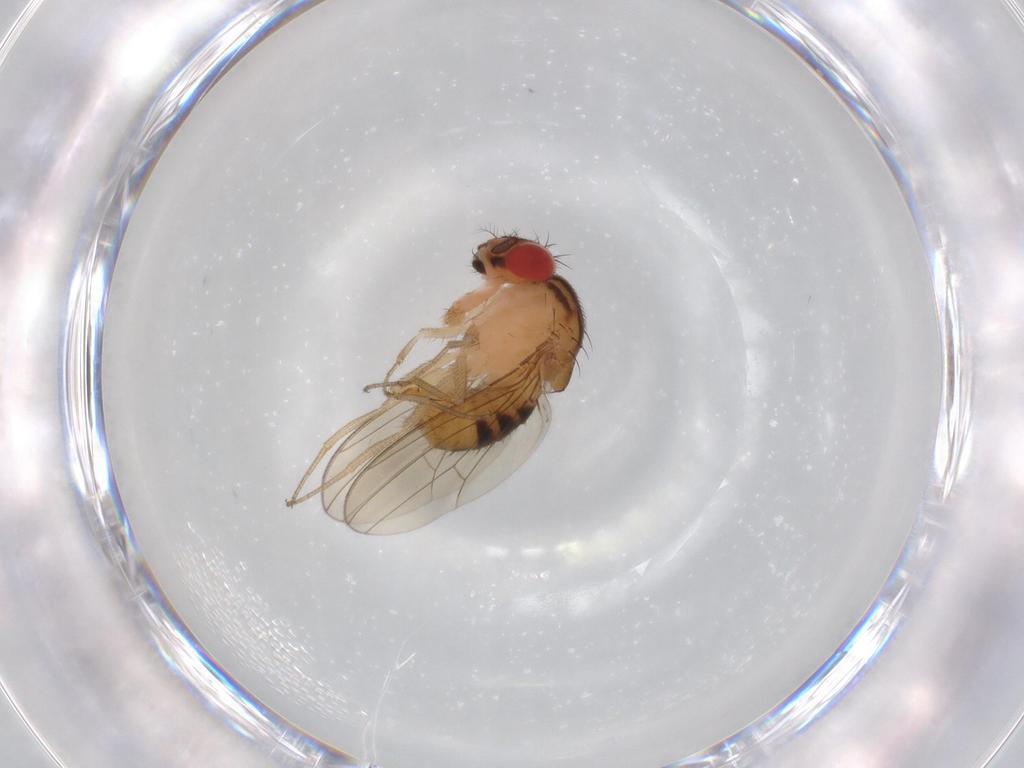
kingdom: Animalia
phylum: Arthropoda
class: Insecta
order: Diptera
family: Drosophilidae
